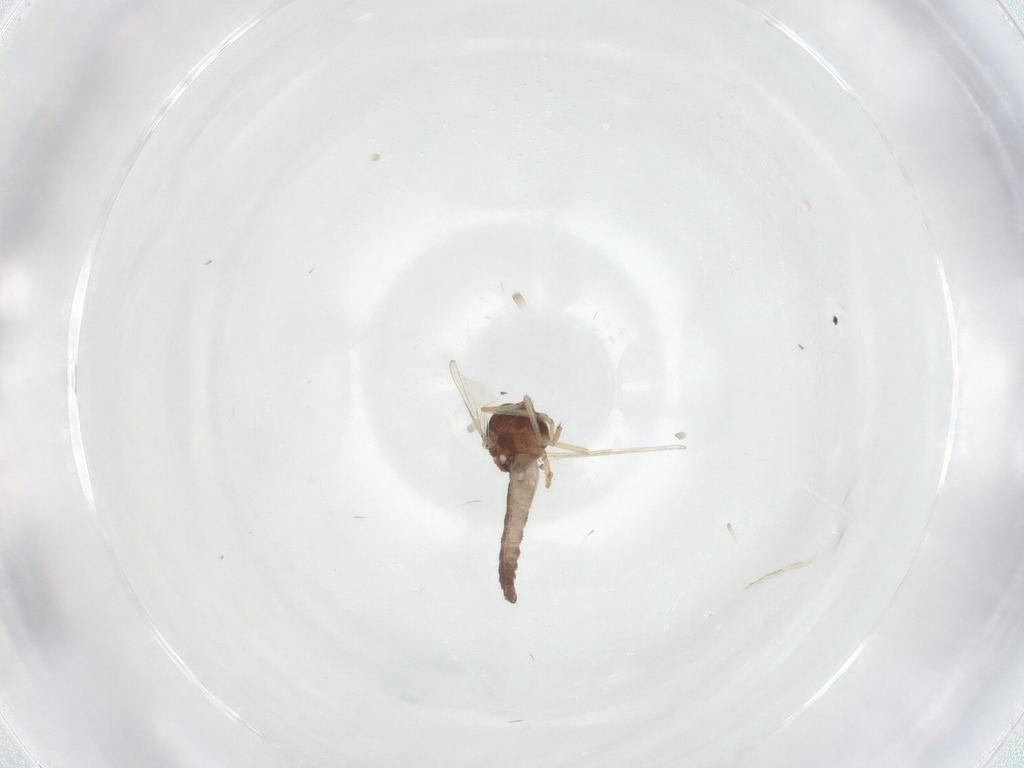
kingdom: Animalia
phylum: Arthropoda
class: Insecta
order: Diptera
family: Ceratopogonidae
